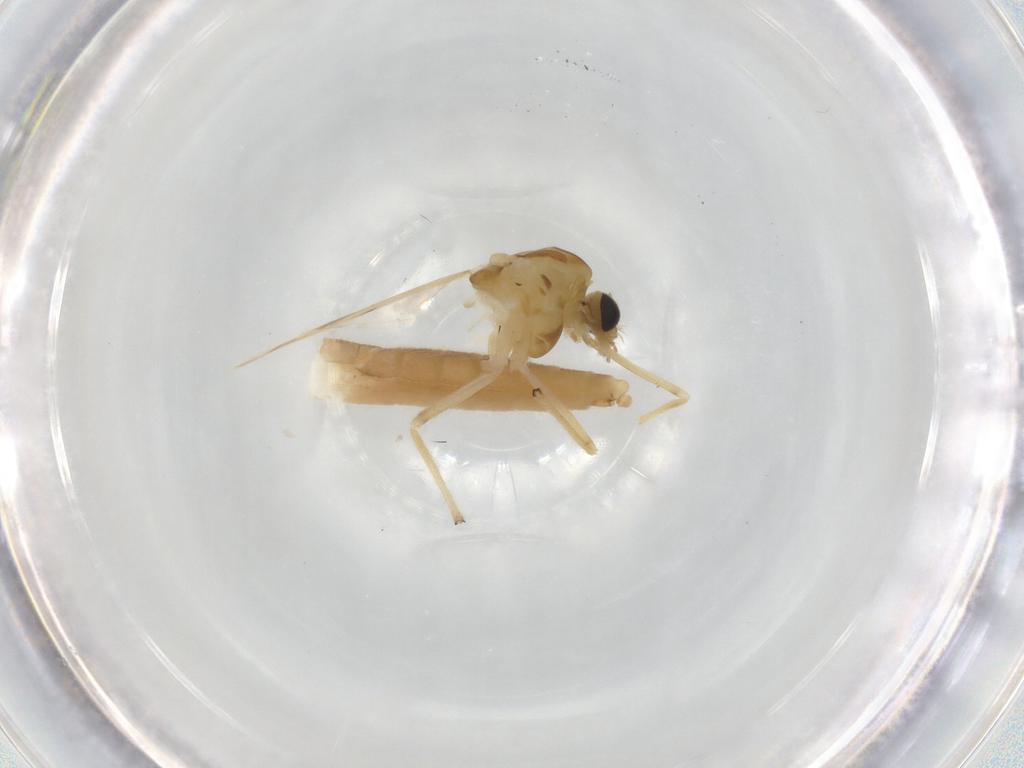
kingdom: Animalia
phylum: Arthropoda
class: Insecta
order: Diptera
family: Chironomidae
